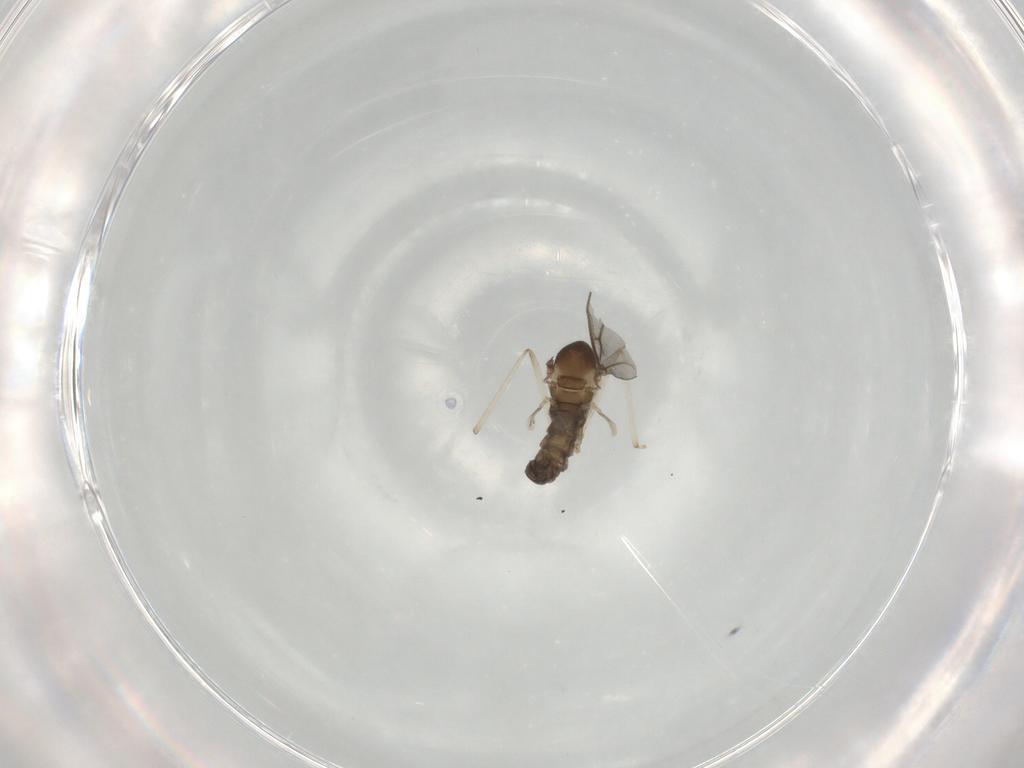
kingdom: Animalia
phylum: Arthropoda
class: Insecta
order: Diptera
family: Cecidomyiidae
